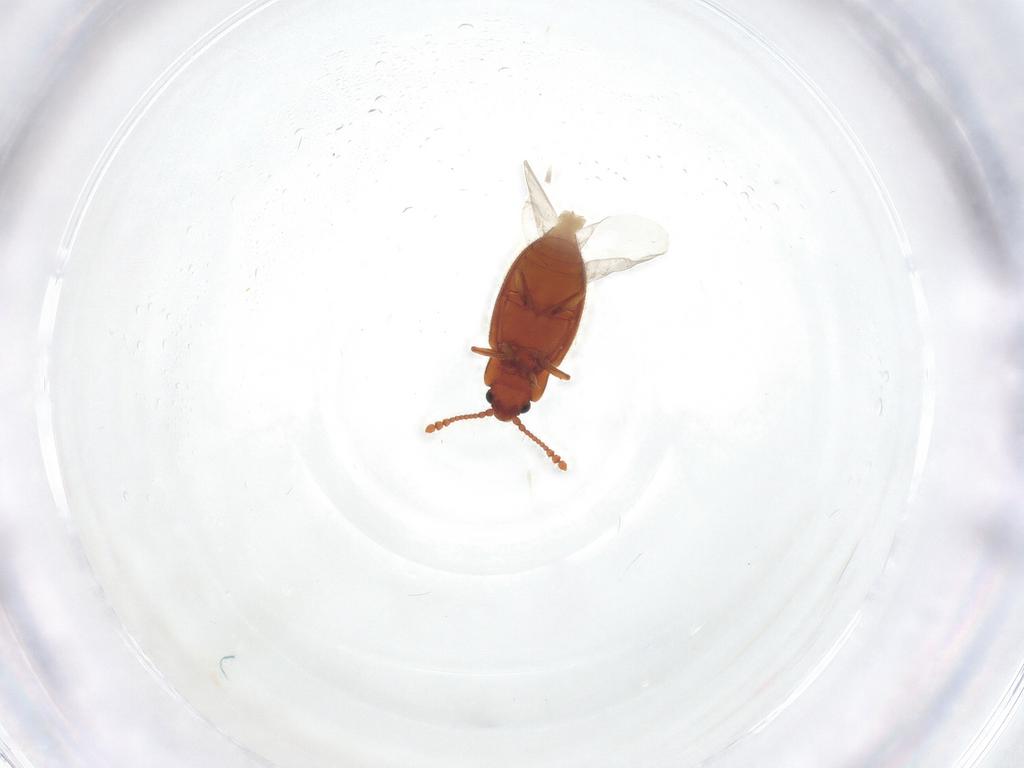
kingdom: Animalia
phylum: Arthropoda
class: Insecta
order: Coleoptera
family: Cryptophagidae
